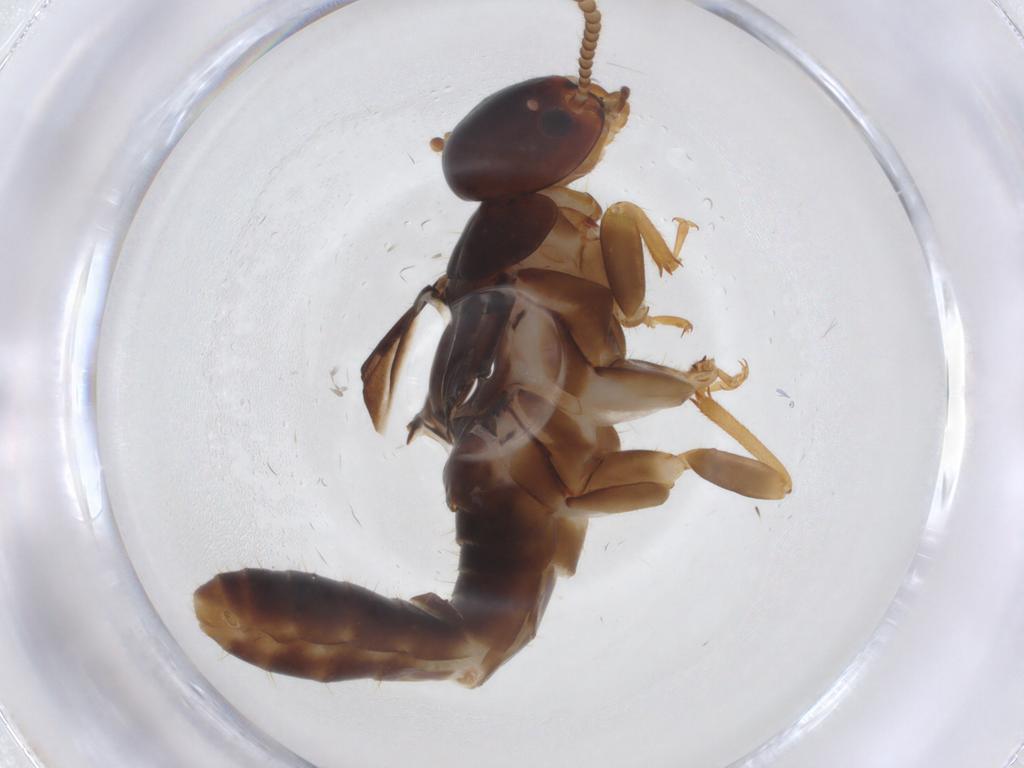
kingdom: Animalia
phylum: Arthropoda
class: Insecta
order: Blattodea
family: Kalotermitidae
